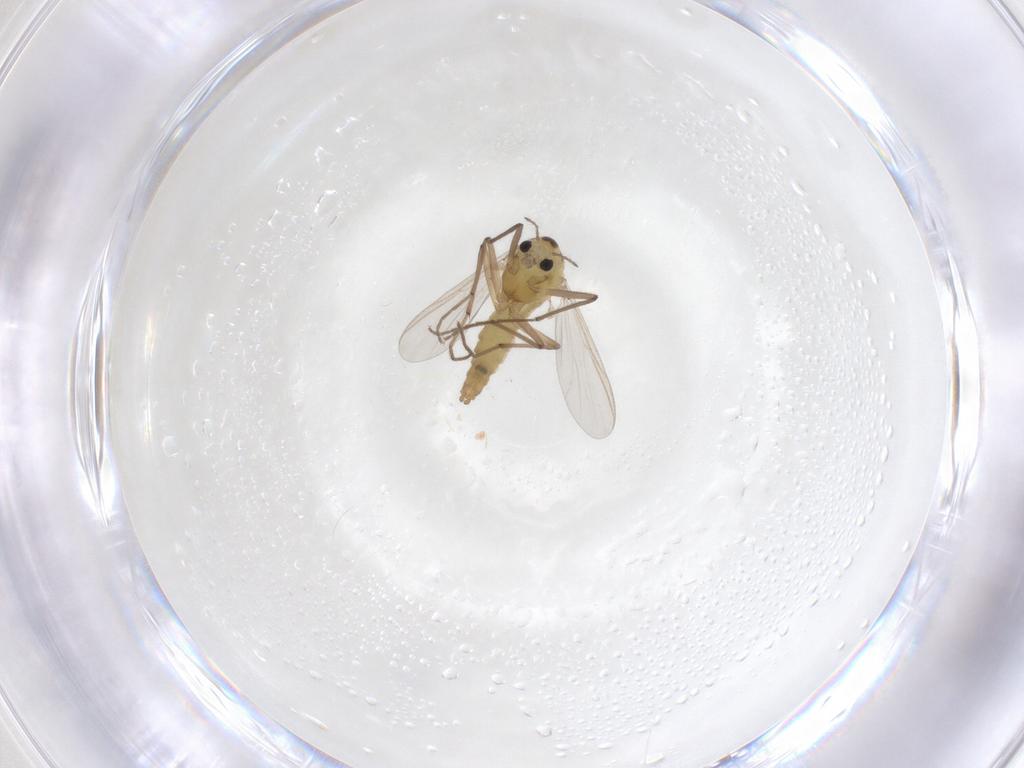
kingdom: Animalia
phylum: Arthropoda
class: Insecta
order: Diptera
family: Chironomidae
